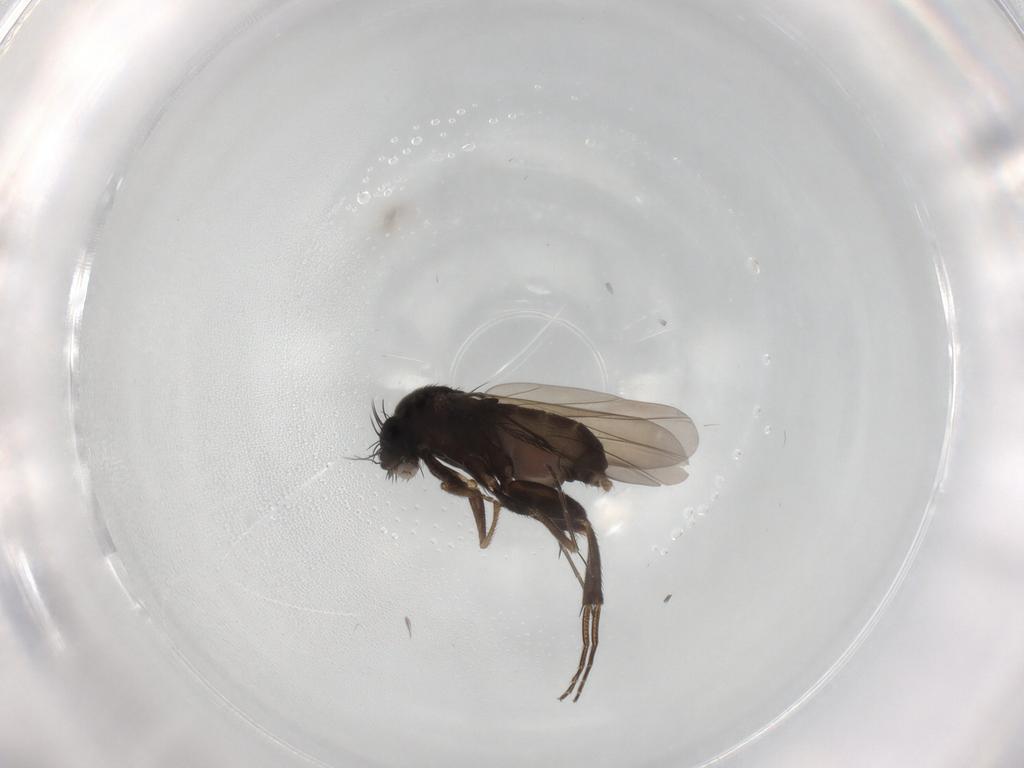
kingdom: Animalia
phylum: Arthropoda
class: Insecta
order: Diptera
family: Phoridae
